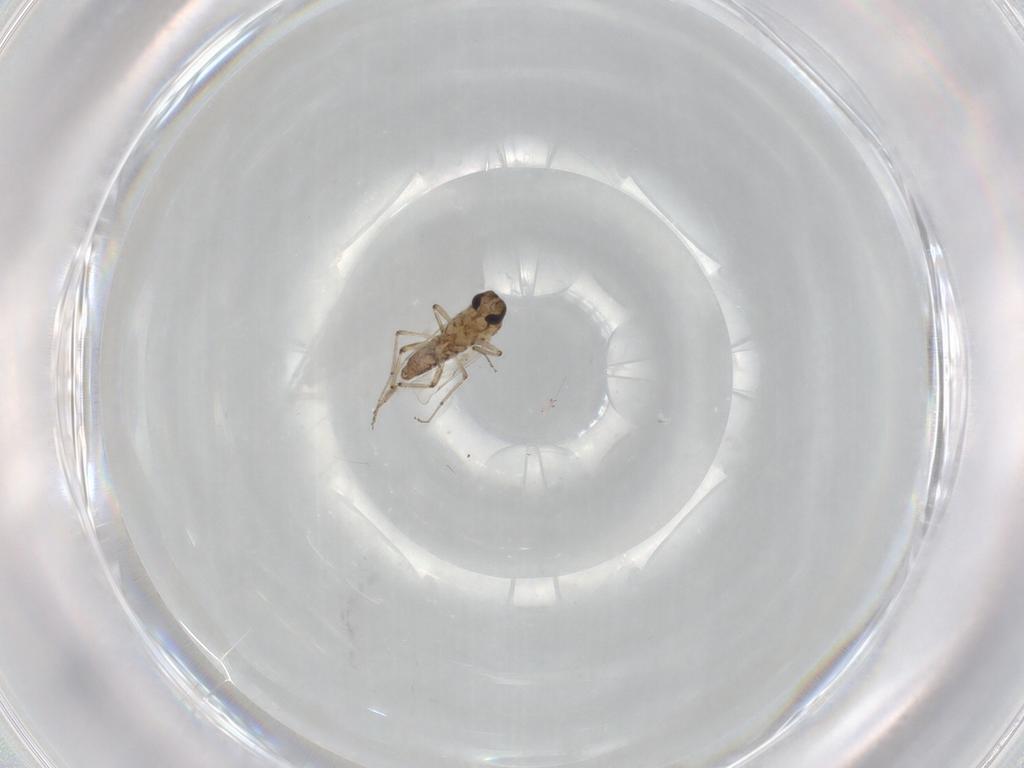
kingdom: Animalia
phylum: Arthropoda
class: Insecta
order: Diptera
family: Ceratopogonidae
